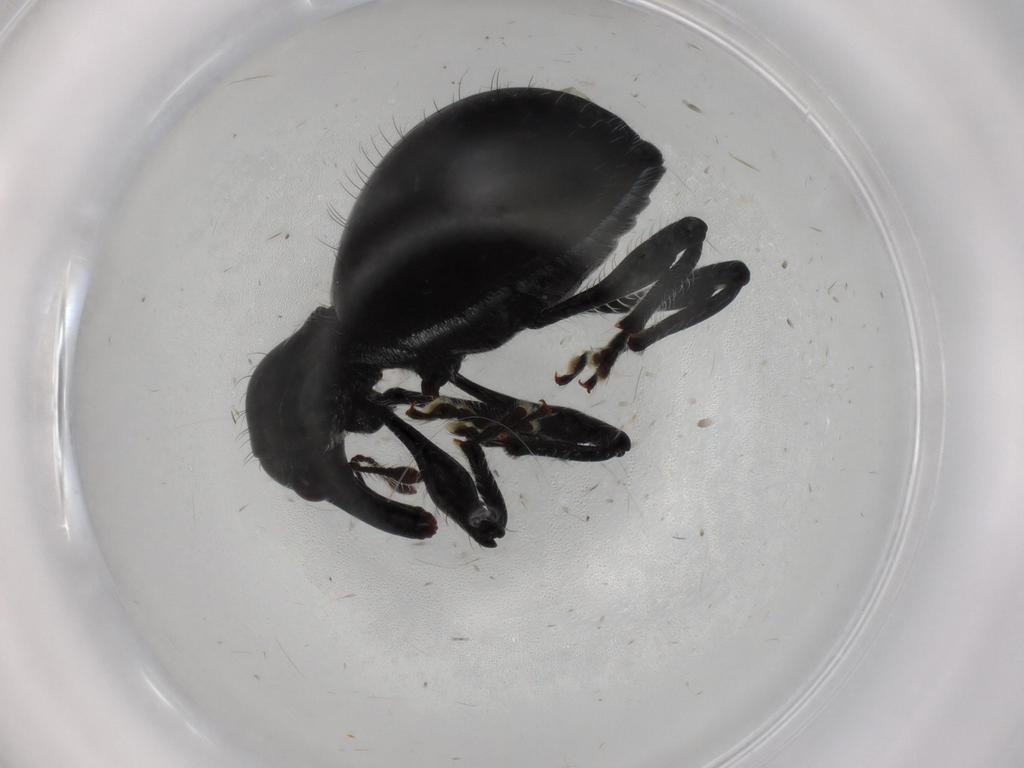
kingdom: Animalia
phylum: Arthropoda
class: Insecta
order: Coleoptera
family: Curculionidae
